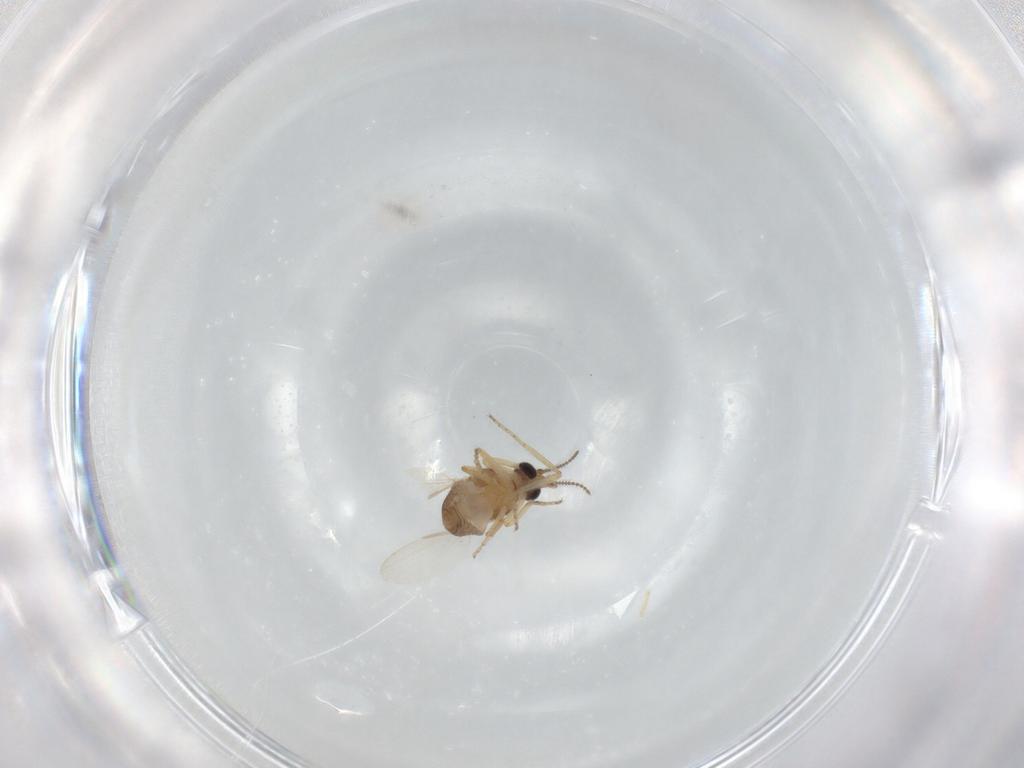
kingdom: Animalia
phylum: Arthropoda
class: Insecta
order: Diptera
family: Ceratopogonidae
